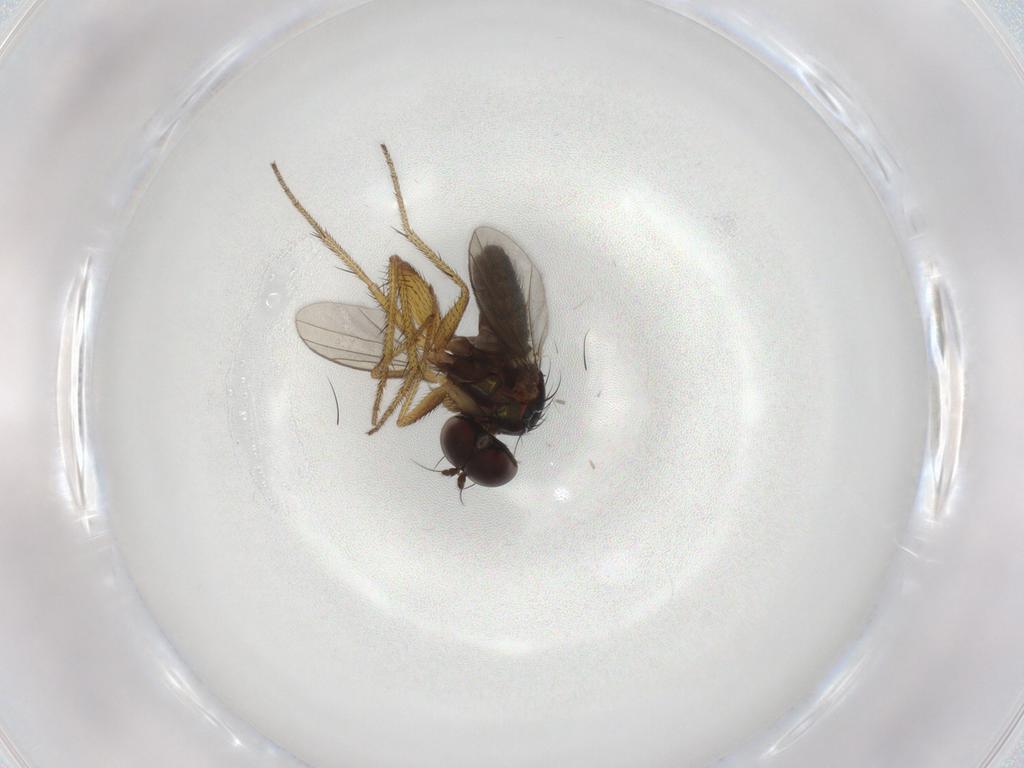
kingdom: Animalia
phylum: Arthropoda
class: Insecta
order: Diptera
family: Dolichopodidae
